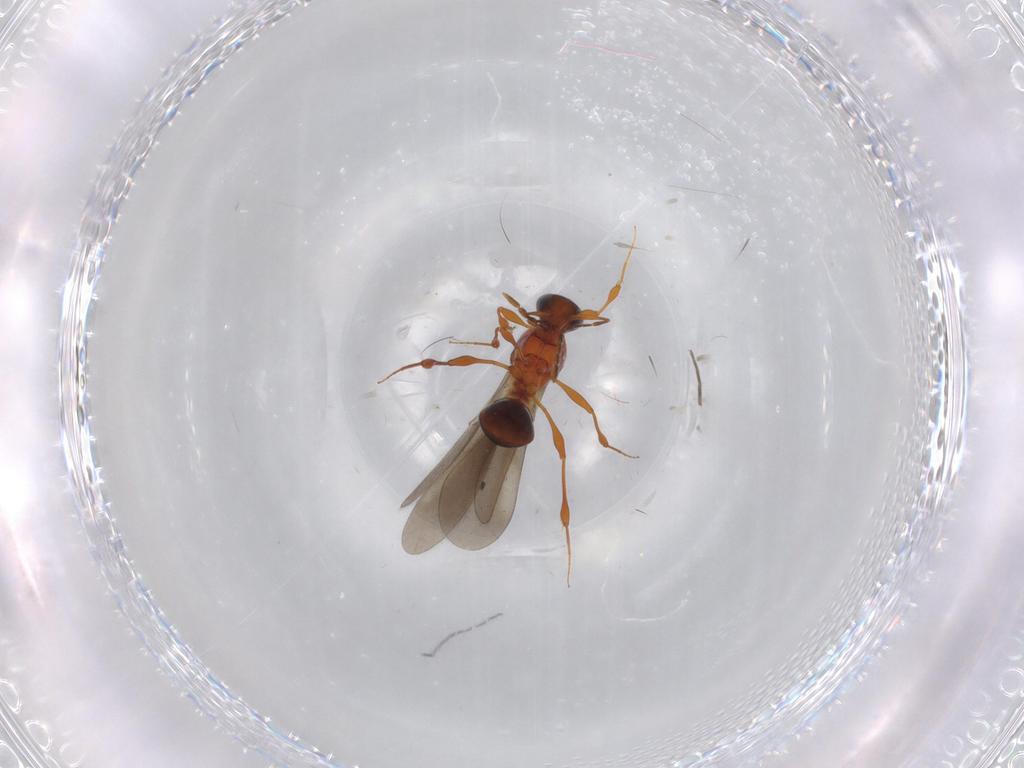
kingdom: Animalia
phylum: Arthropoda
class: Insecta
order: Hymenoptera
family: Platygastridae
